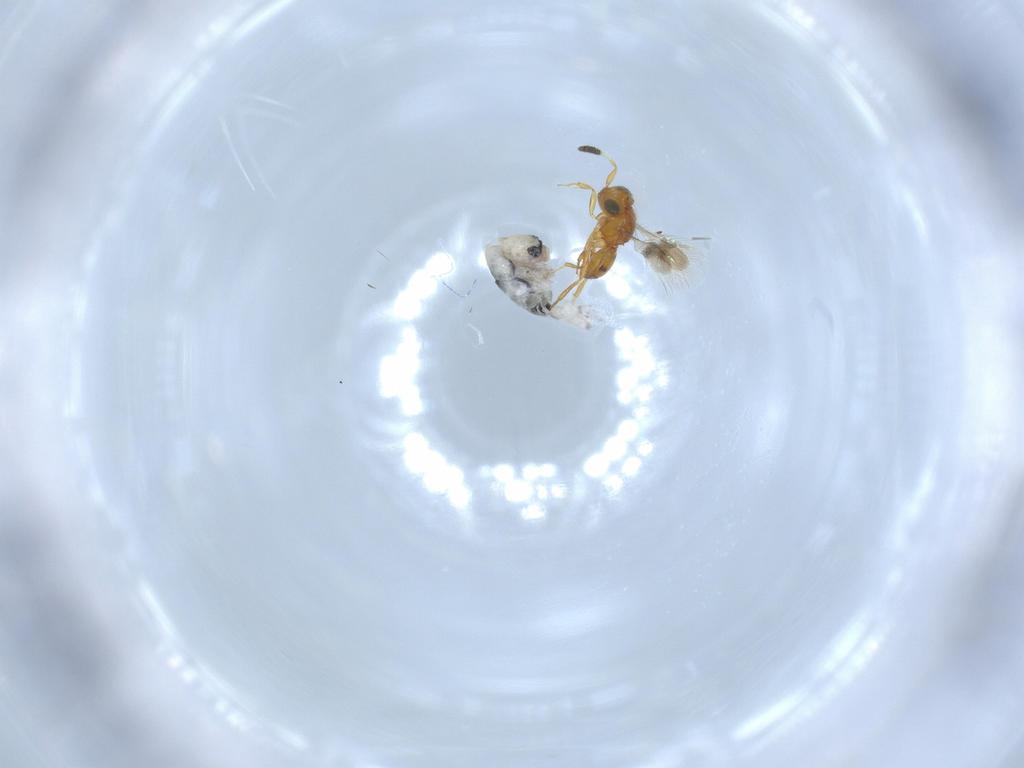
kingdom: Animalia
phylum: Arthropoda
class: Collembola
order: Entomobryomorpha
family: Entomobryidae
